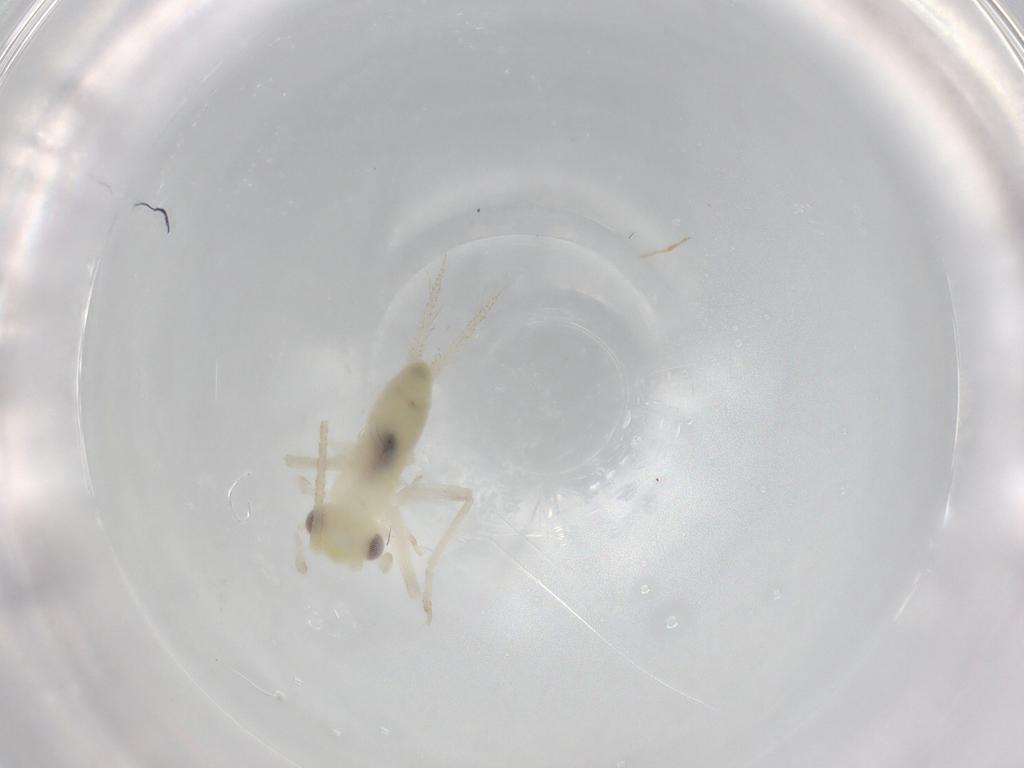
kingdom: Animalia
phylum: Arthropoda
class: Insecta
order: Orthoptera
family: Trigonidiidae
